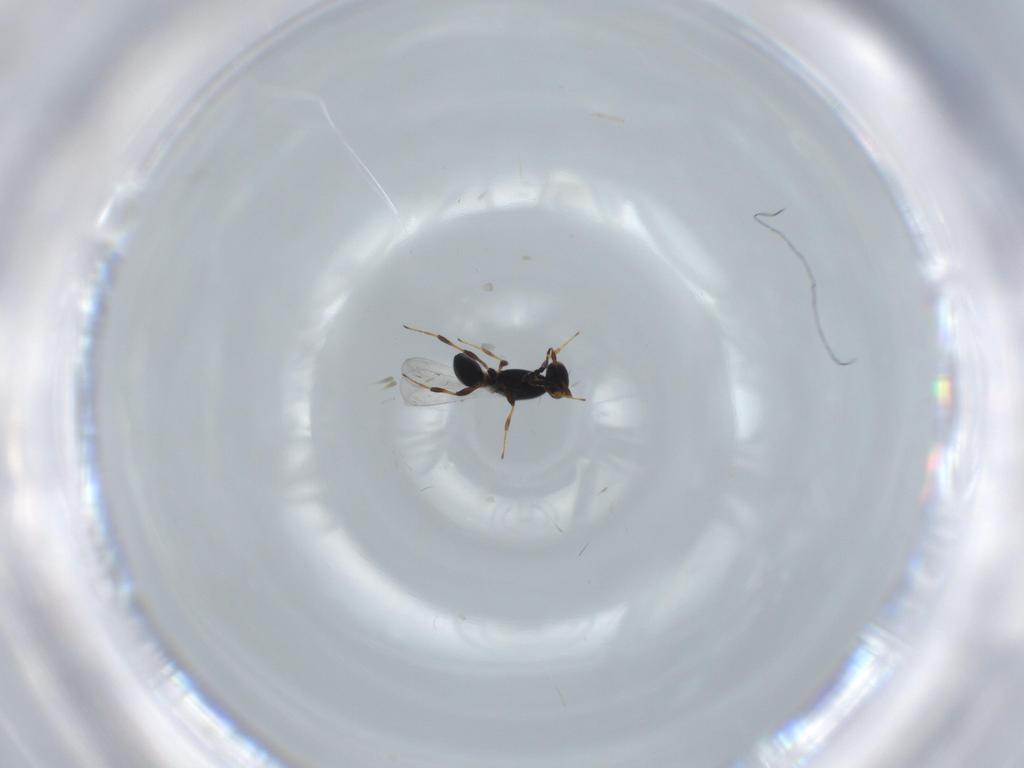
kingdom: Animalia
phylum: Arthropoda
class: Insecta
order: Hymenoptera
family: Trichogrammatidae
